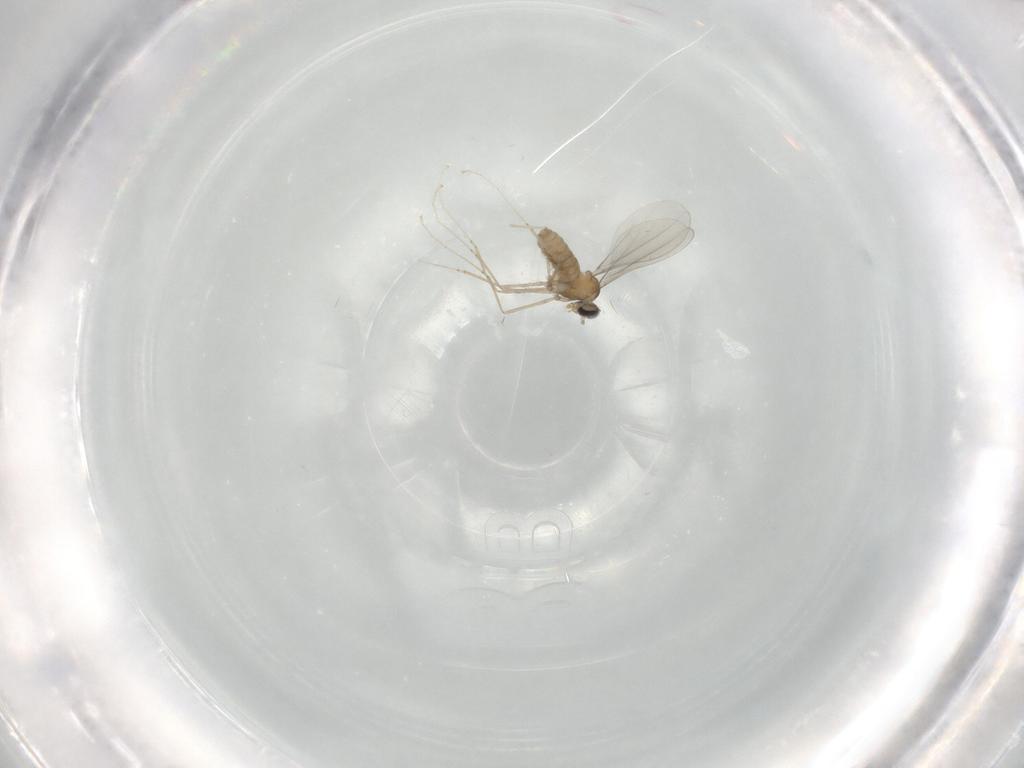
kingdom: Animalia
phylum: Arthropoda
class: Insecta
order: Diptera
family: Cecidomyiidae
